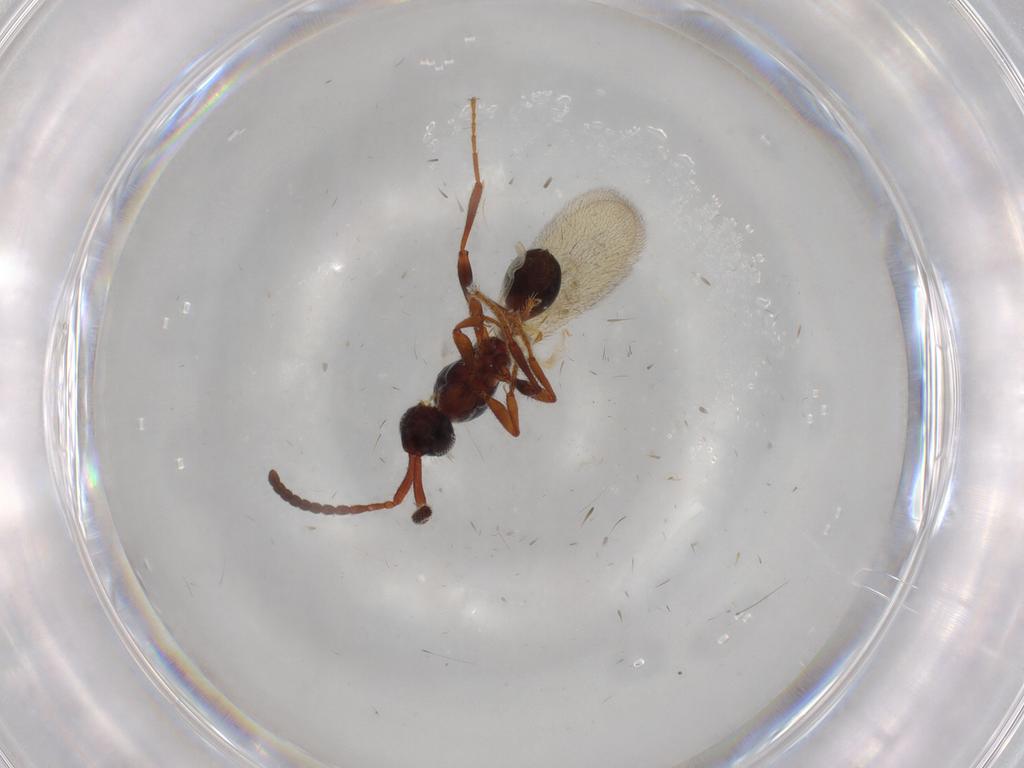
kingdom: Animalia
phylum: Arthropoda
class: Insecta
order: Hymenoptera
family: Diapriidae
